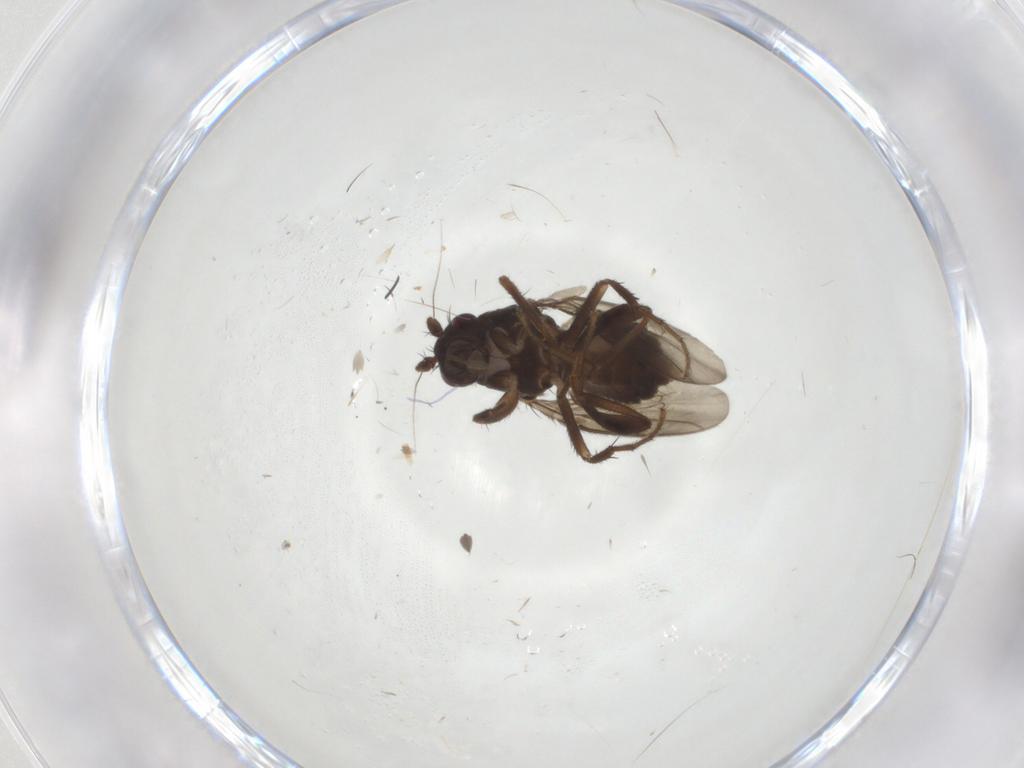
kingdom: Animalia
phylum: Arthropoda
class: Insecta
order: Diptera
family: Sphaeroceridae
